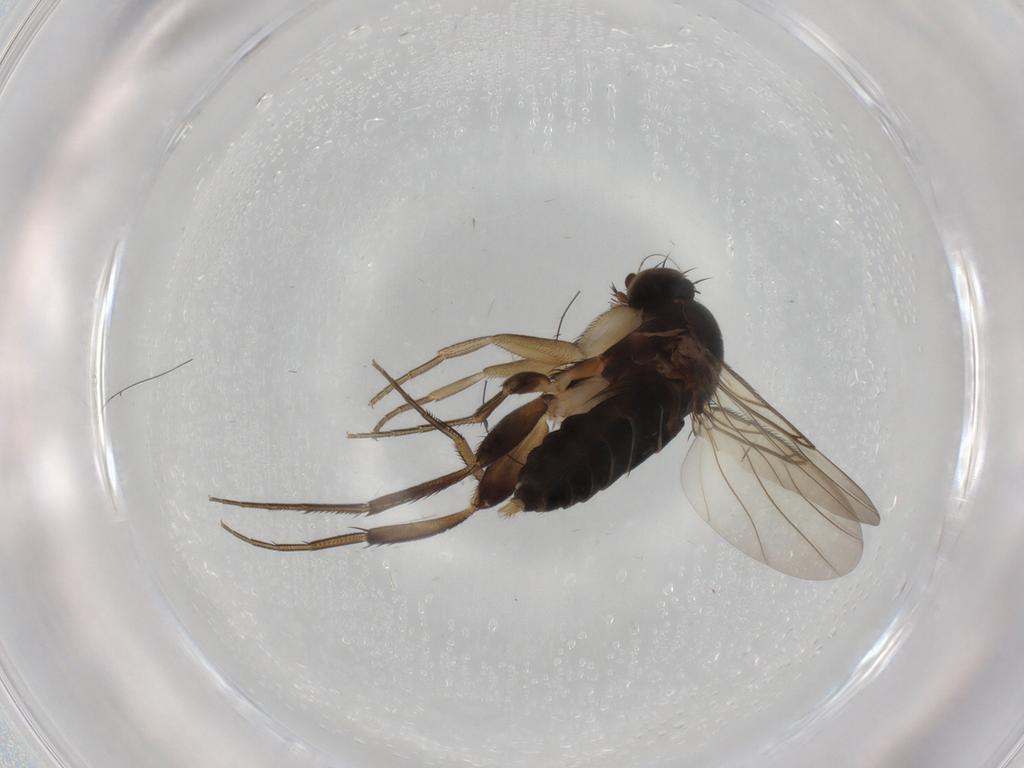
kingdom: Animalia
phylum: Arthropoda
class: Insecta
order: Diptera
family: Phoridae
